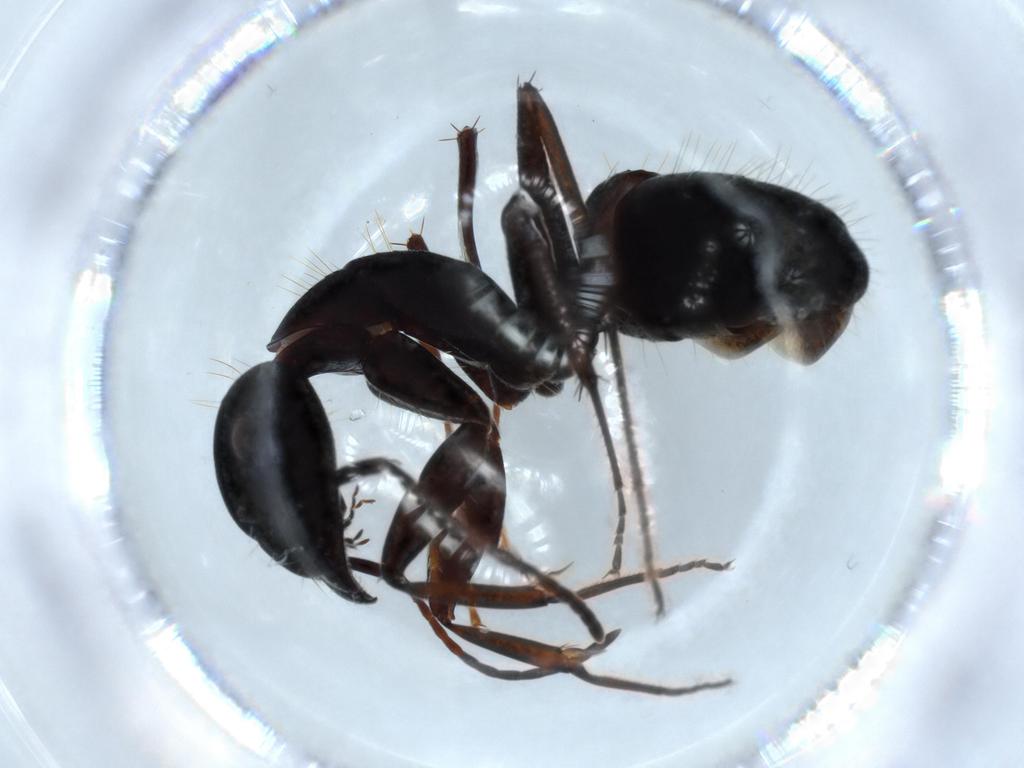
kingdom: Animalia
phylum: Arthropoda
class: Insecta
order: Hymenoptera
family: Formicidae
